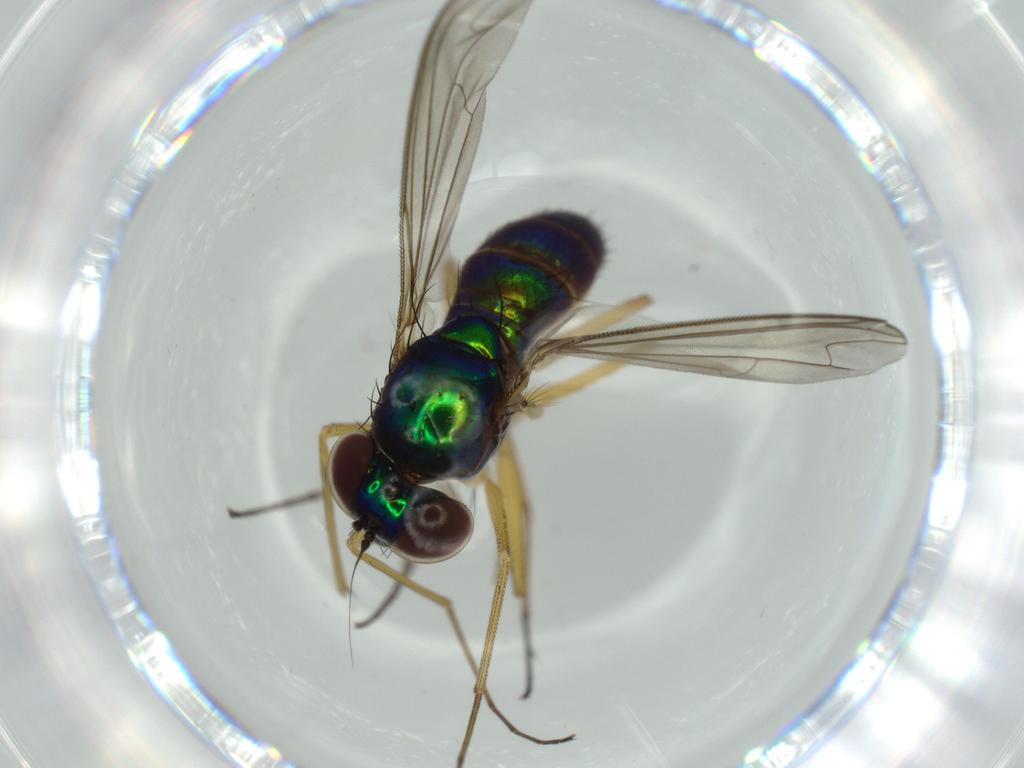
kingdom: Animalia
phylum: Arthropoda
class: Insecta
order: Diptera
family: Dolichopodidae
